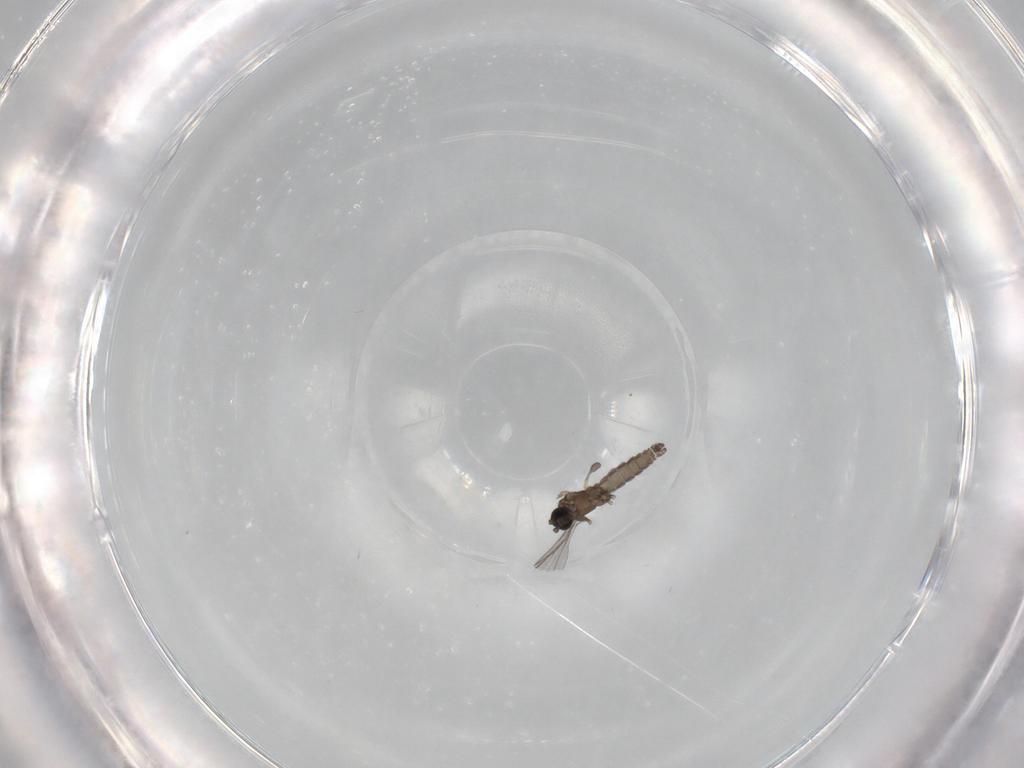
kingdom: Animalia
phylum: Arthropoda
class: Insecta
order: Diptera
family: Sciaridae
